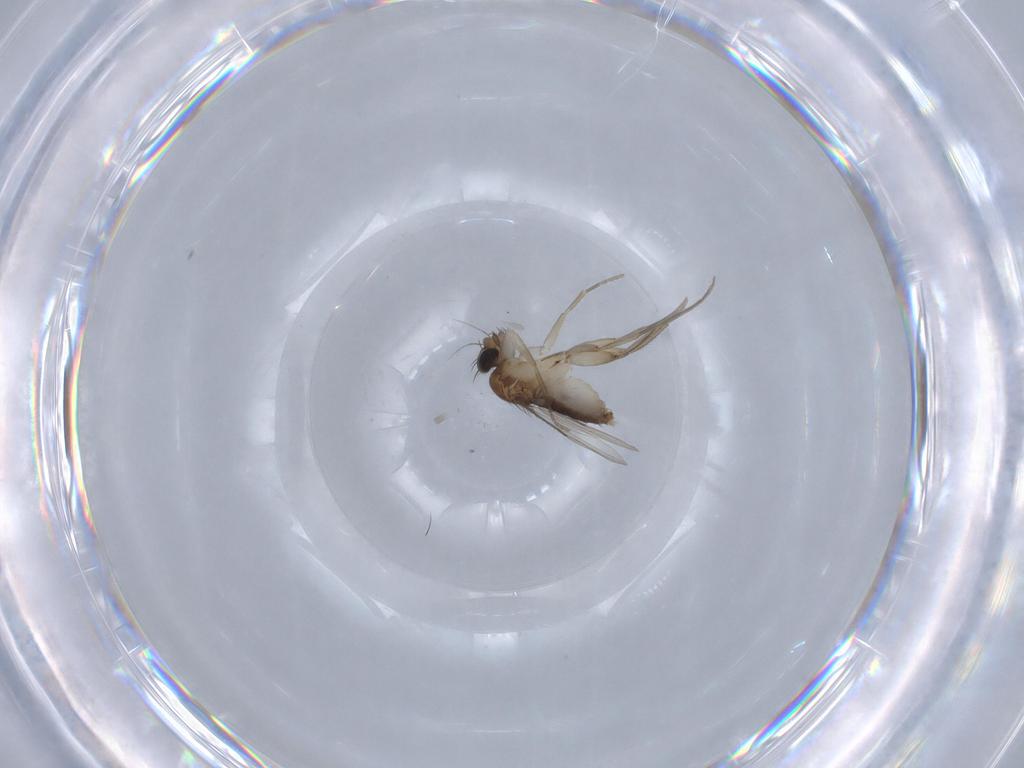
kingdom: Animalia
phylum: Arthropoda
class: Insecta
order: Diptera
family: Phoridae
